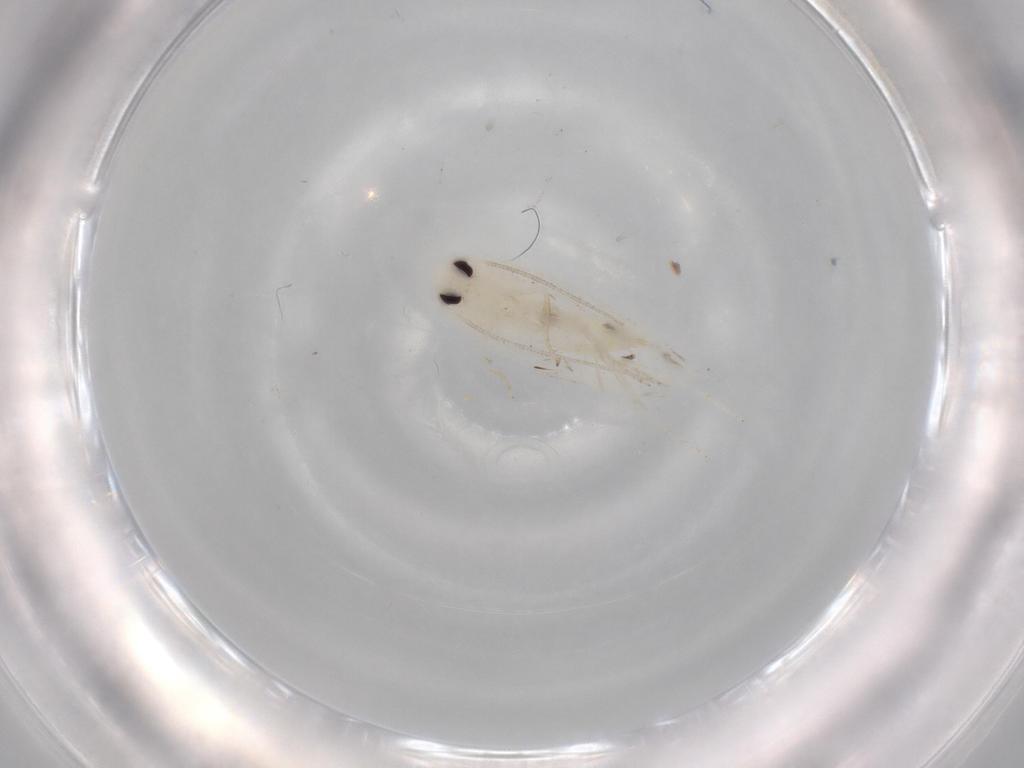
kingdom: Animalia
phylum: Arthropoda
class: Insecta
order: Lepidoptera
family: Lyonetiidae
